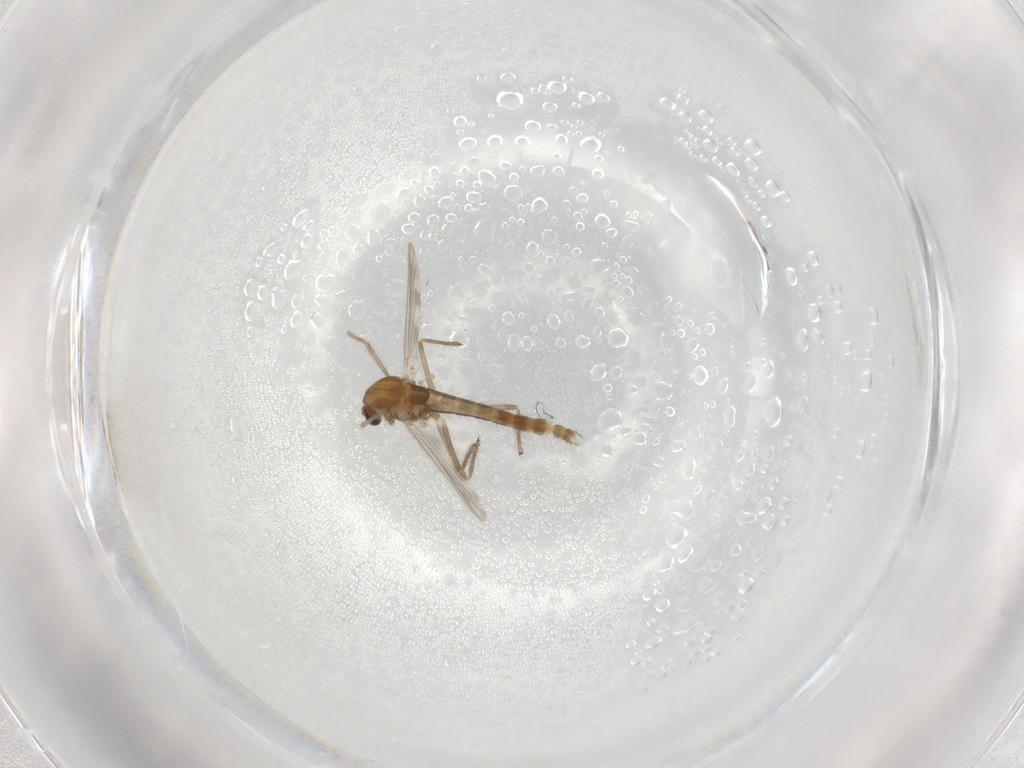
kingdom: Animalia
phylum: Arthropoda
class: Insecta
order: Diptera
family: Chironomidae
